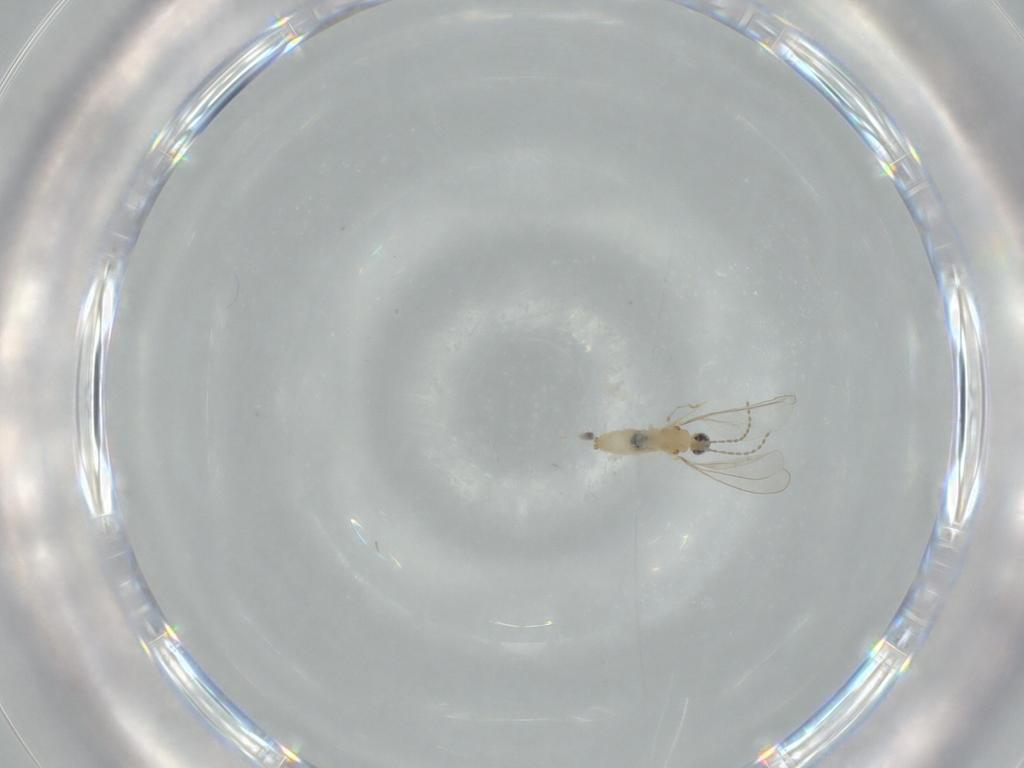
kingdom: Animalia
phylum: Arthropoda
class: Insecta
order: Diptera
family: Cecidomyiidae
